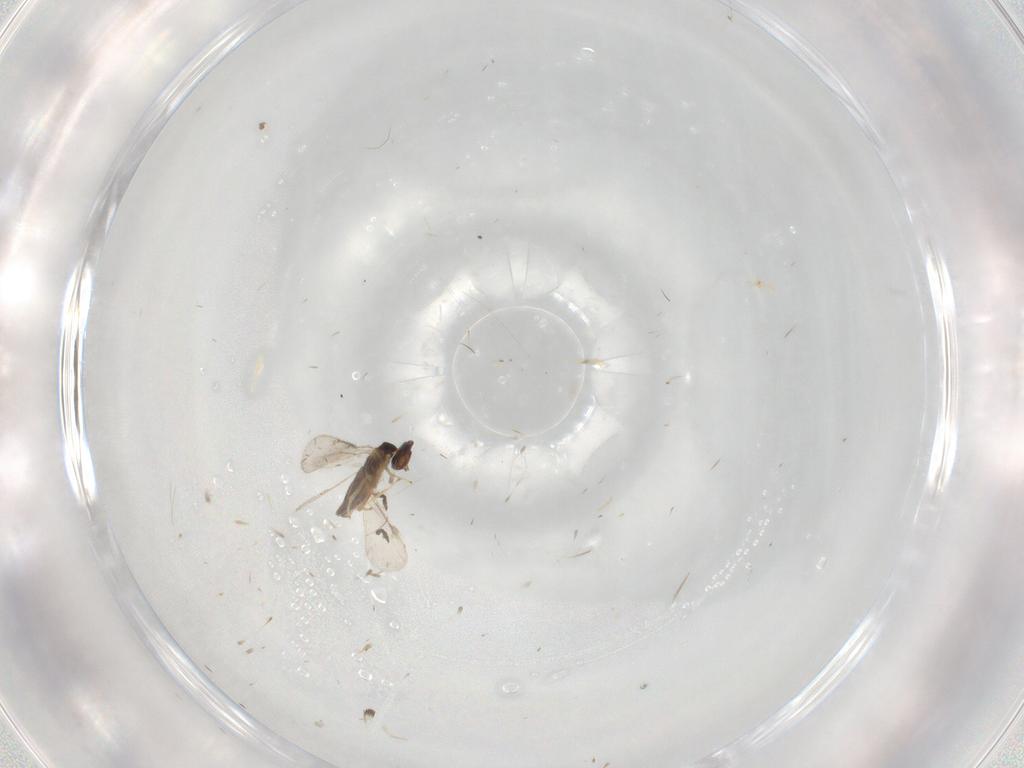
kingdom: Animalia
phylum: Arthropoda
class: Insecta
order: Hymenoptera
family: Eulophidae
